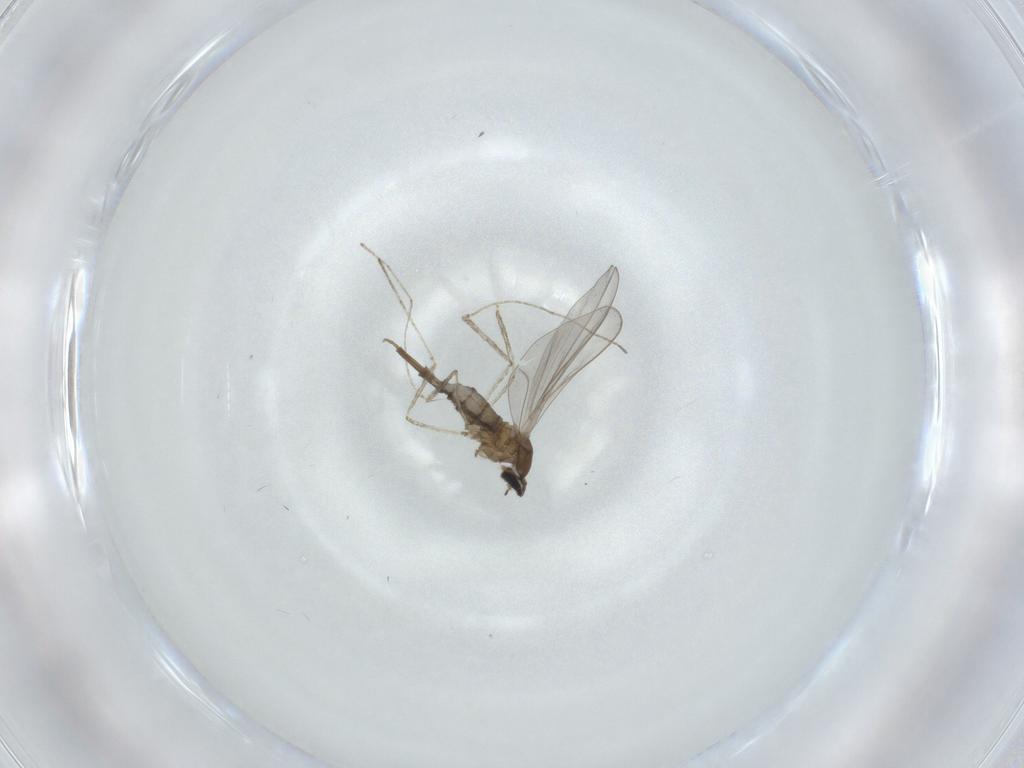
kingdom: Animalia
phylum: Arthropoda
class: Insecta
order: Diptera
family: Cecidomyiidae
